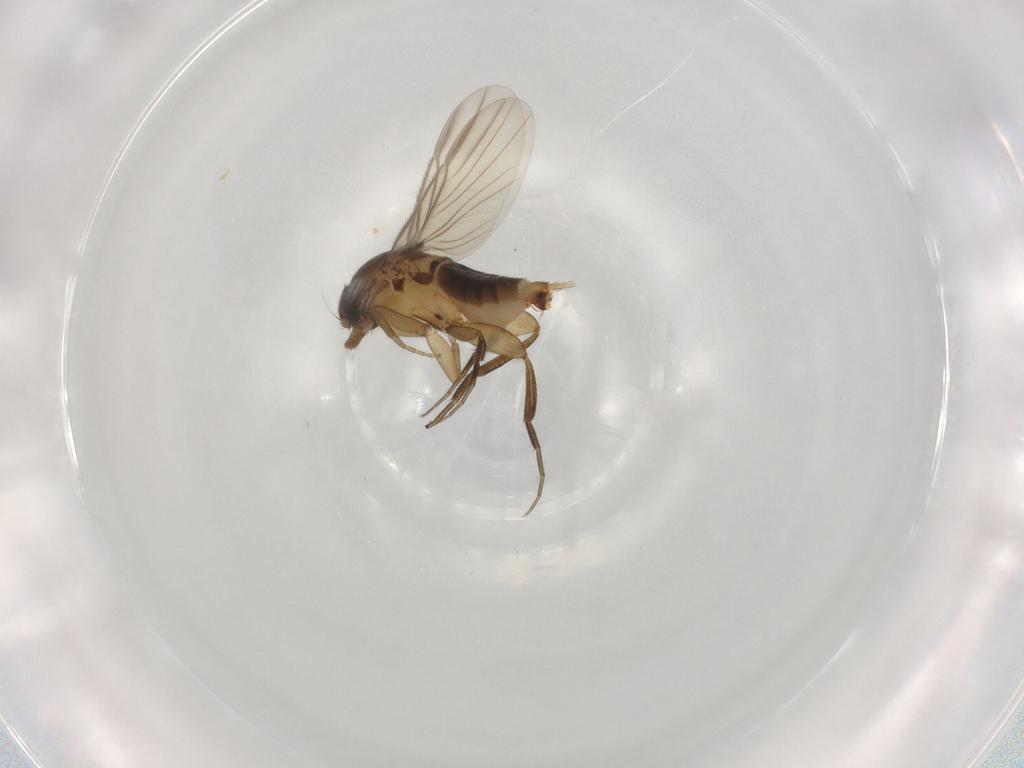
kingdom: Animalia
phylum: Arthropoda
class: Insecta
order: Diptera
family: Phoridae
